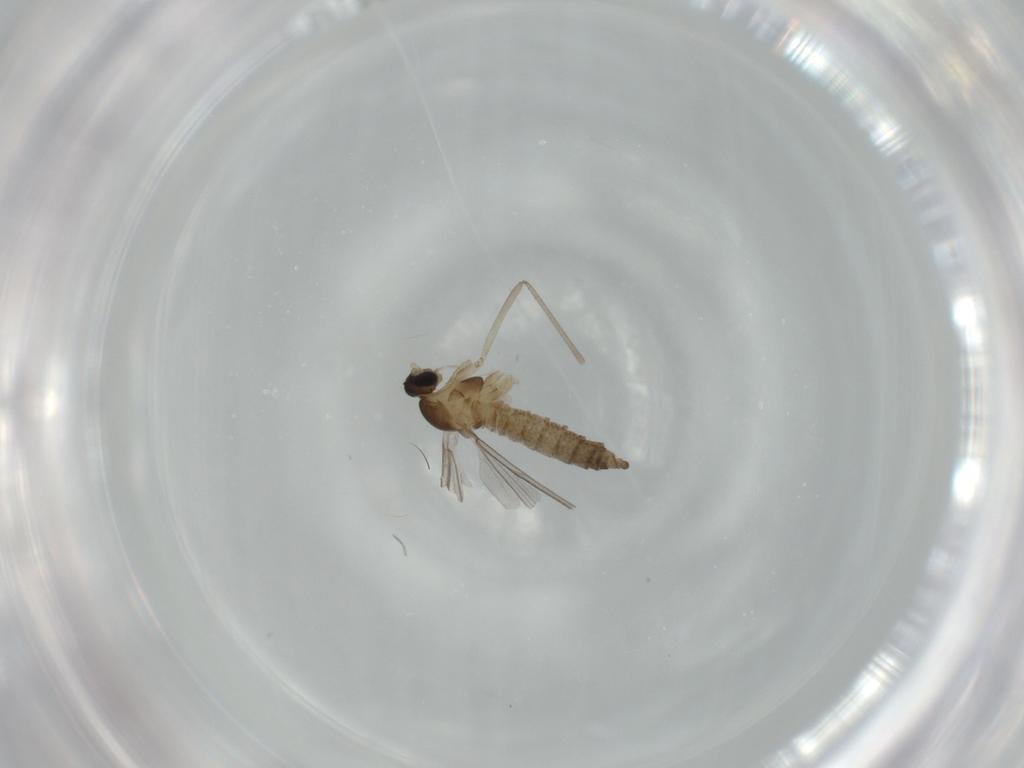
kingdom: Animalia
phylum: Arthropoda
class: Insecta
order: Diptera
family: Cecidomyiidae
